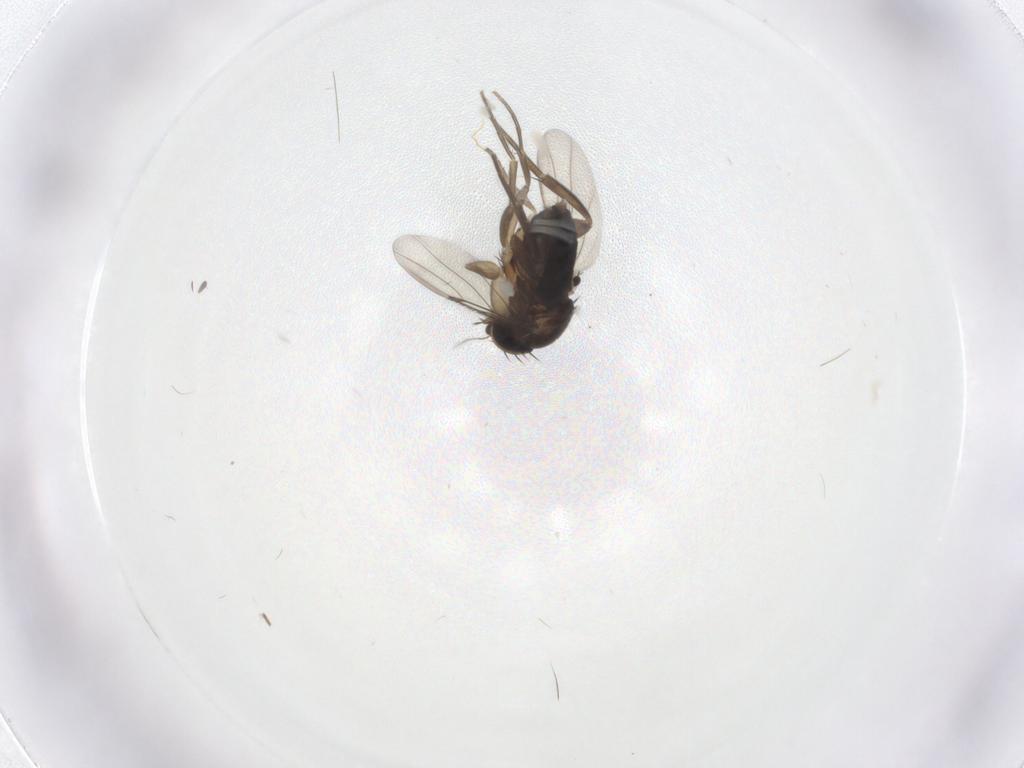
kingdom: Animalia
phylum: Arthropoda
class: Insecta
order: Diptera
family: Phoridae
